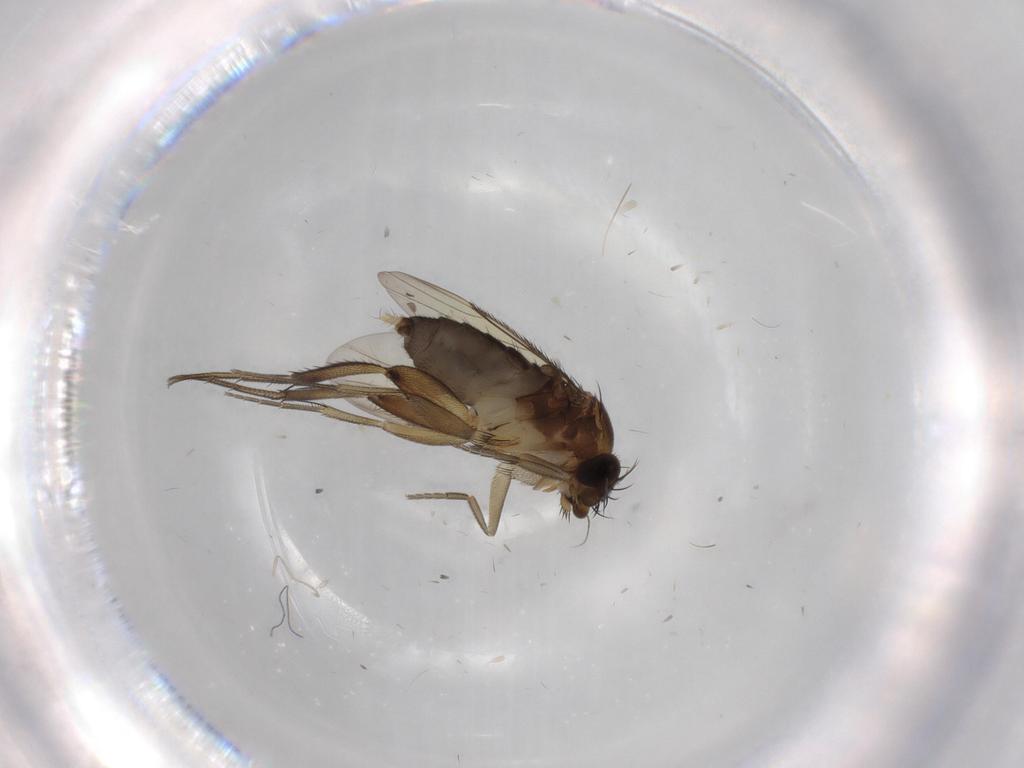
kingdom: Animalia
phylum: Arthropoda
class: Insecta
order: Diptera
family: Phoridae
